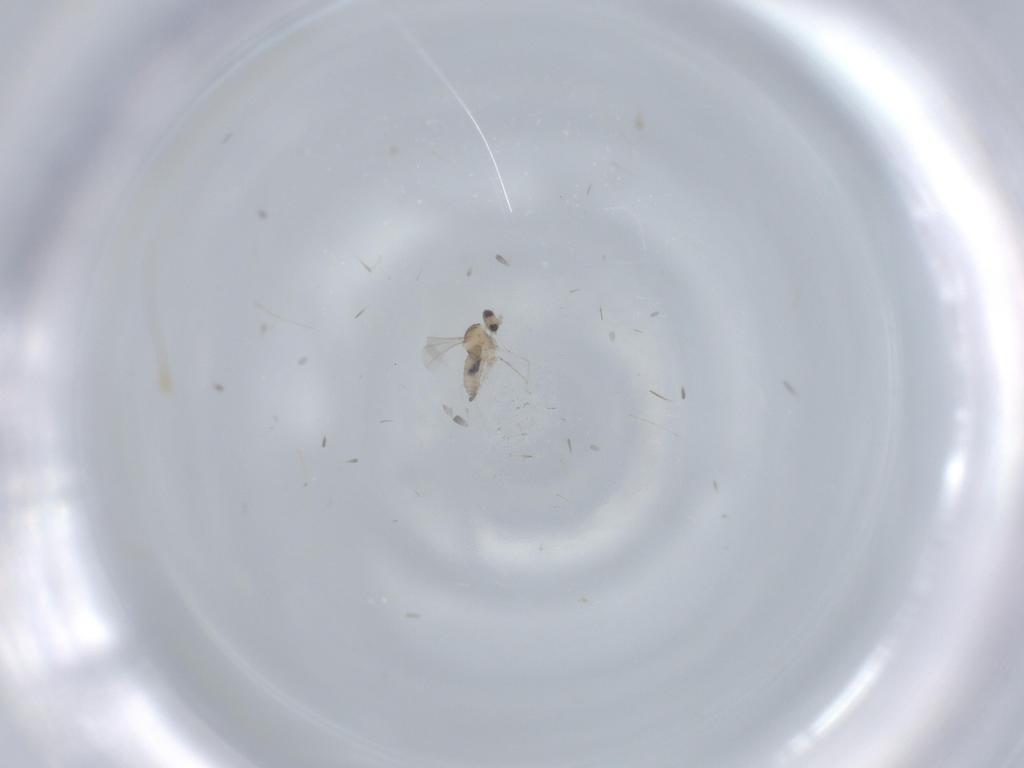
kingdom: Animalia
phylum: Arthropoda
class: Insecta
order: Diptera
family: Cecidomyiidae
